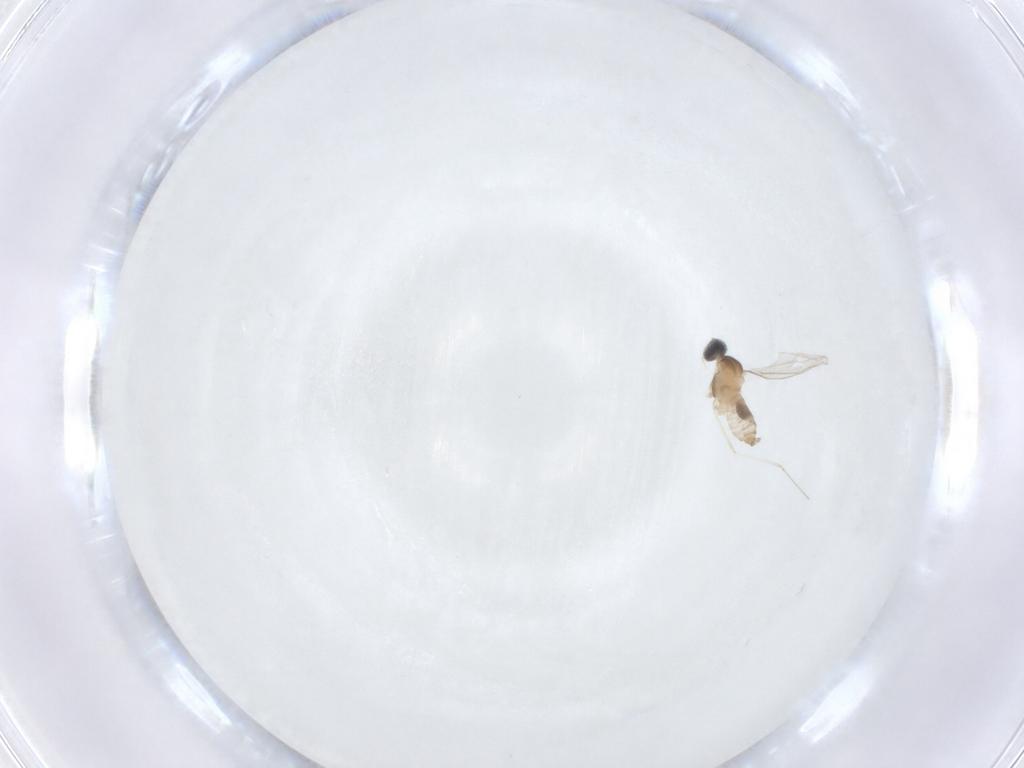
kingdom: Animalia
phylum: Arthropoda
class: Insecta
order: Diptera
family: Cecidomyiidae
